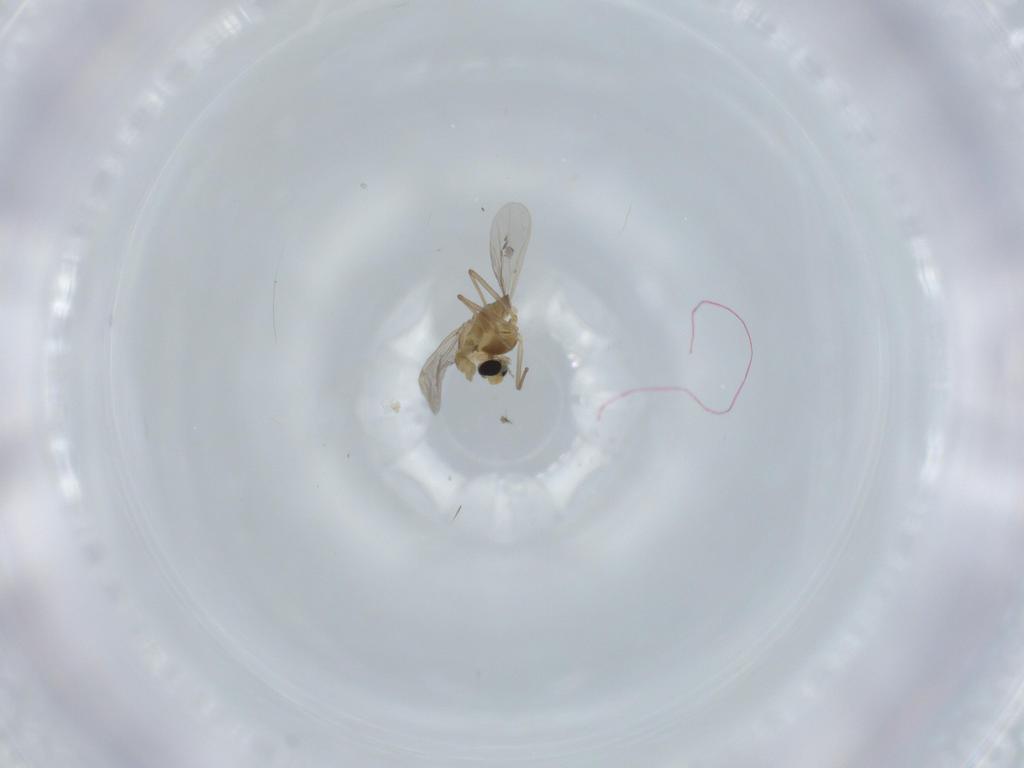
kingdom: Animalia
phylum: Arthropoda
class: Insecta
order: Diptera
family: Chironomidae
